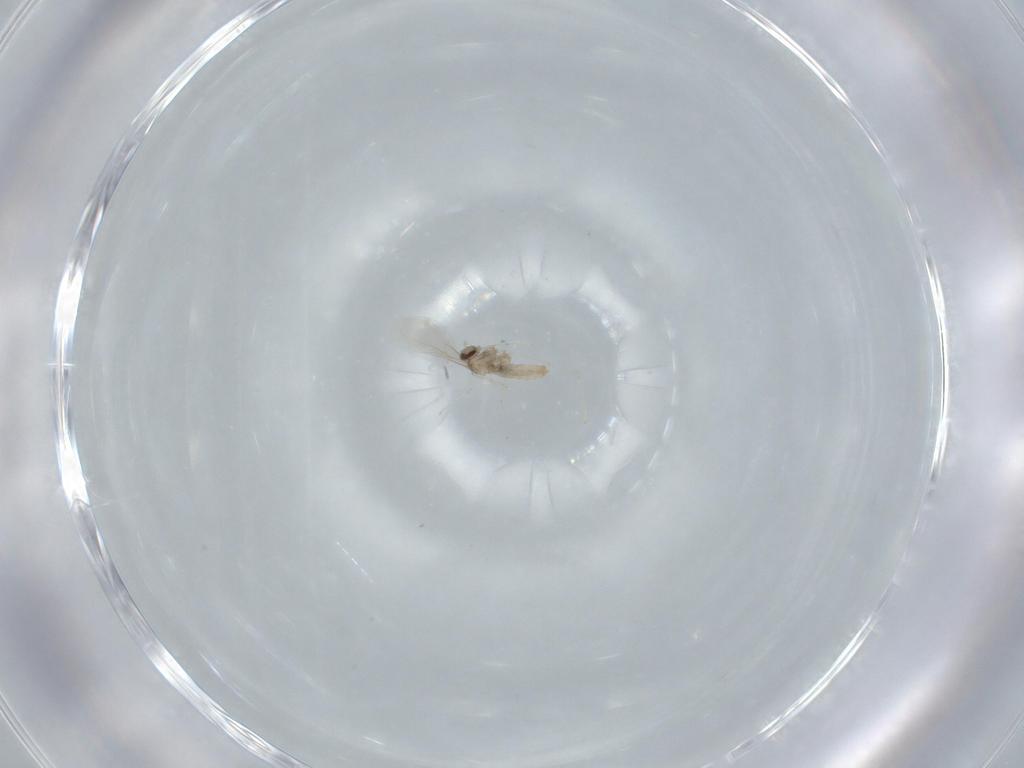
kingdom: Animalia
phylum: Arthropoda
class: Insecta
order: Diptera
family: Cecidomyiidae
